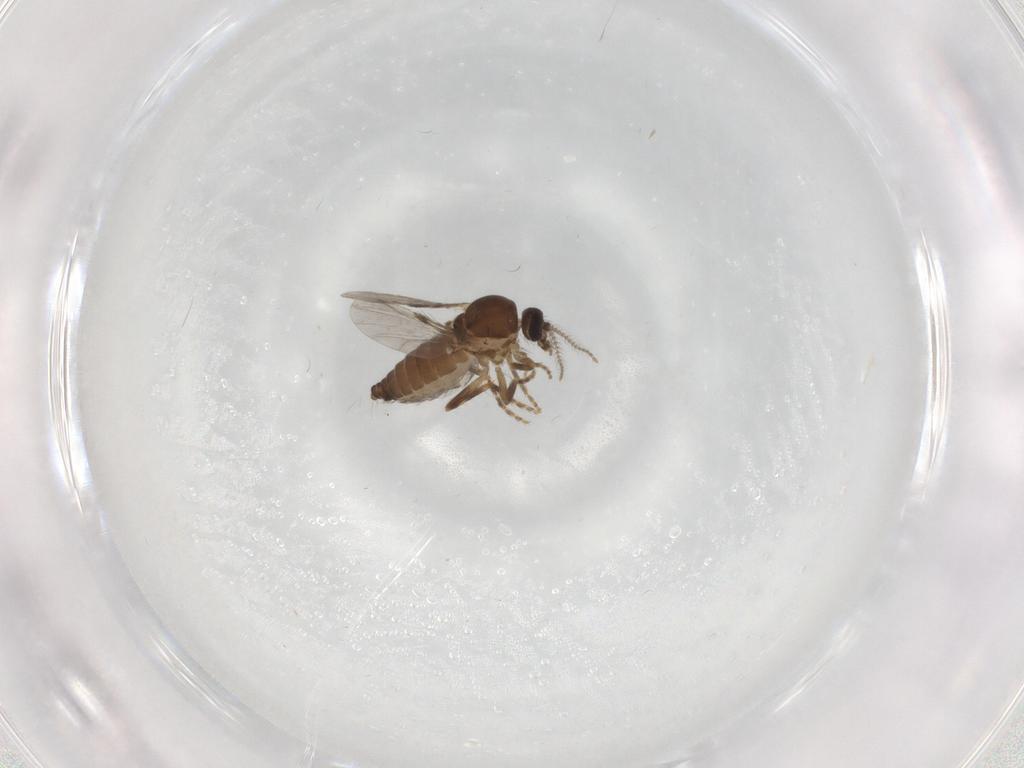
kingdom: Animalia
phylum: Arthropoda
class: Insecta
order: Diptera
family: Ceratopogonidae
